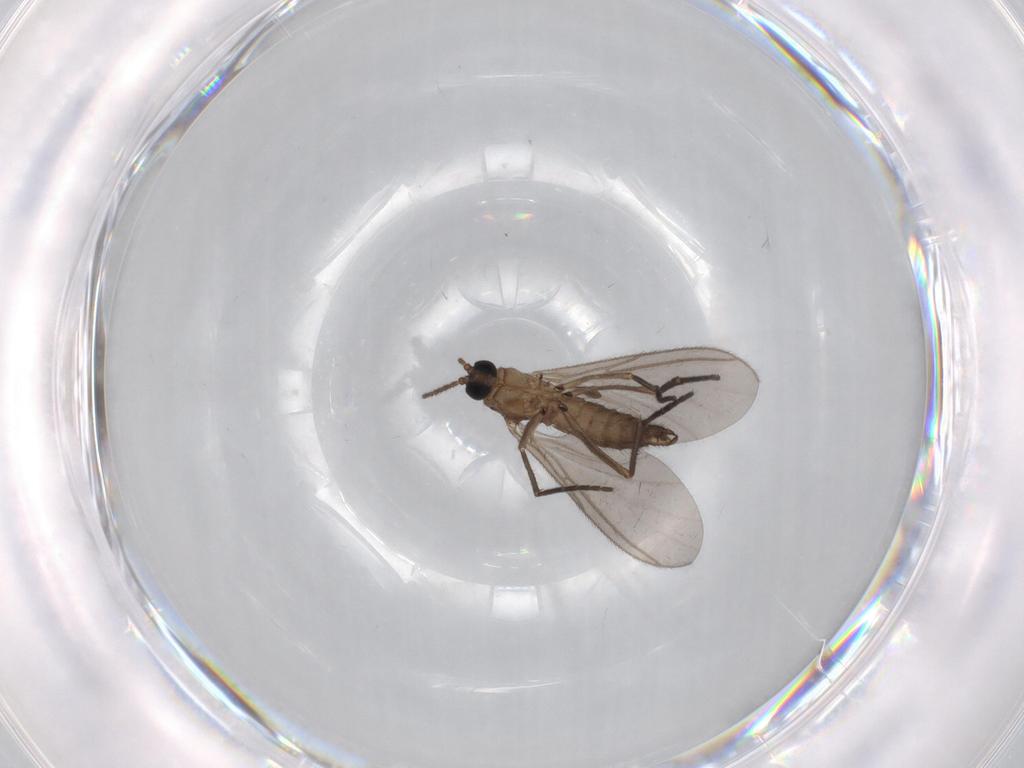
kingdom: Animalia
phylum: Arthropoda
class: Insecta
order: Diptera
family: Sciaridae
